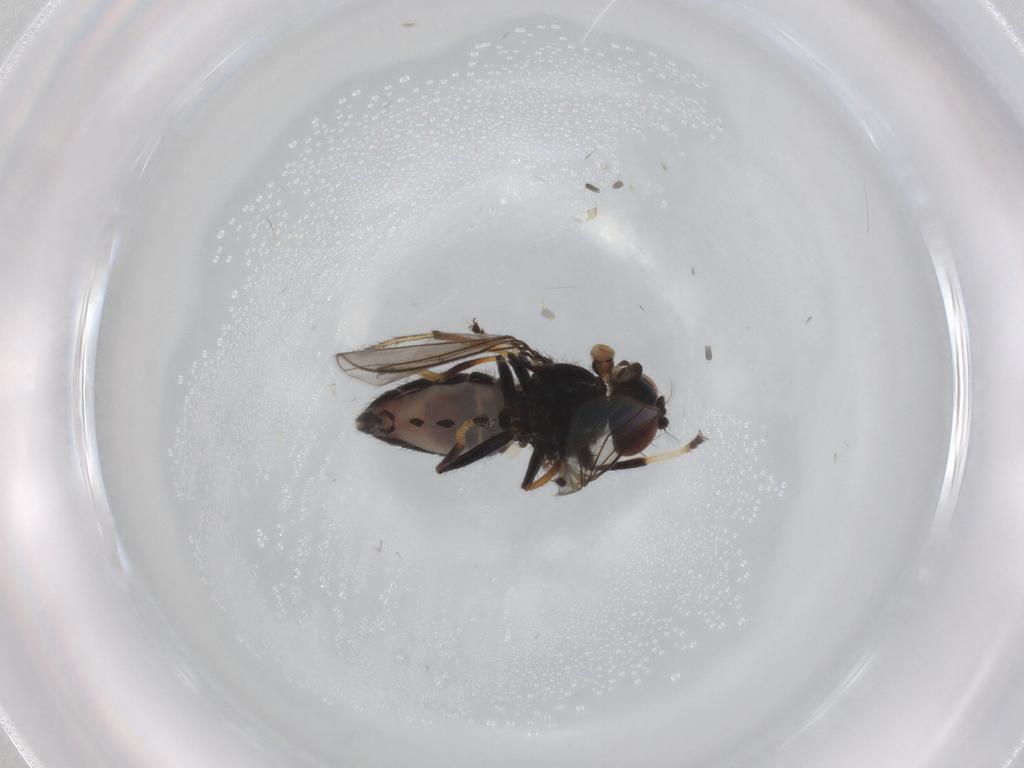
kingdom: Animalia
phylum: Arthropoda
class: Insecta
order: Diptera
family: Ephydridae
